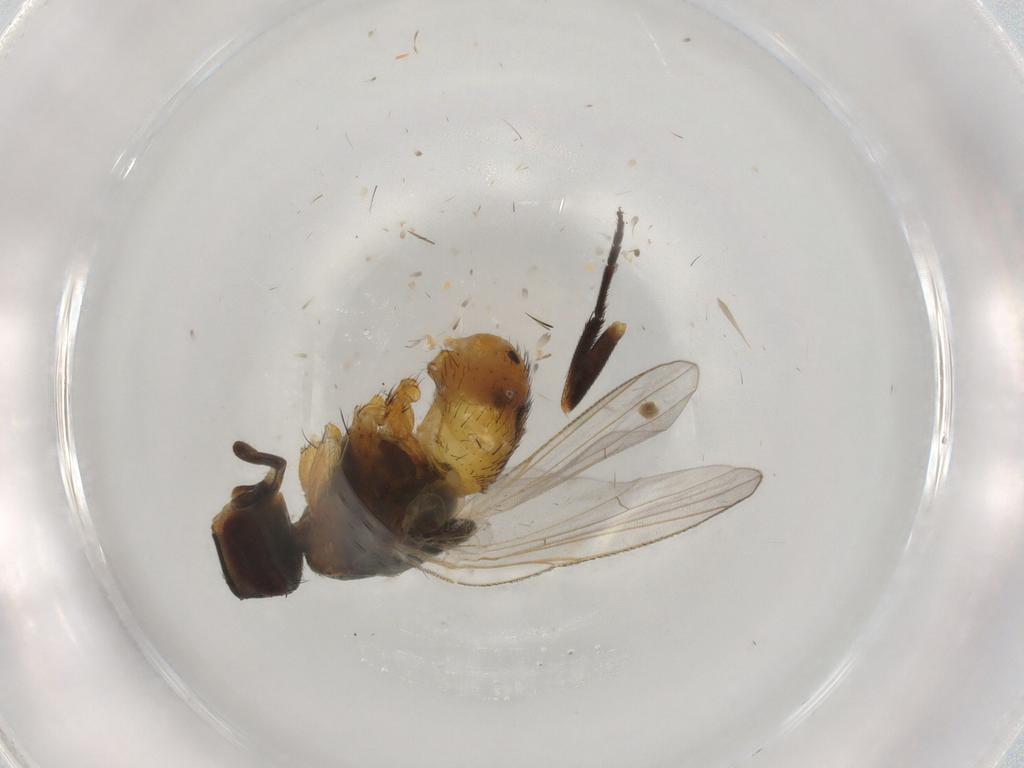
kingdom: Animalia
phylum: Arthropoda
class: Insecta
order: Diptera
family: Muscidae
